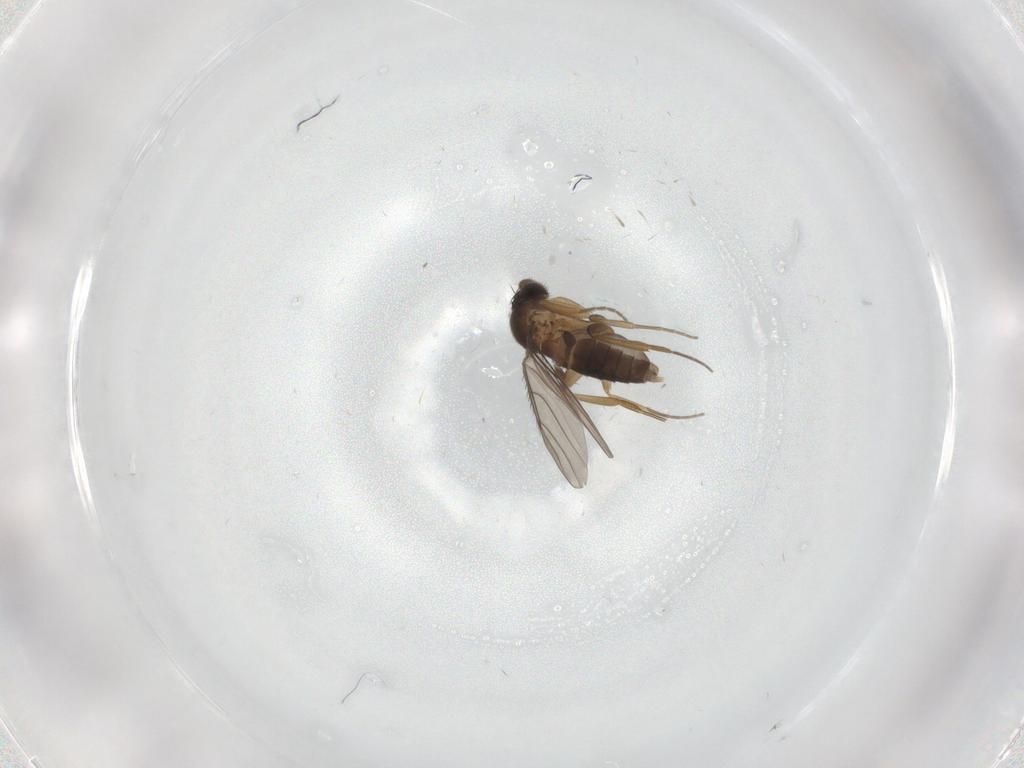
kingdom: Animalia
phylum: Arthropoda
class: Insecta
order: Diptera
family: Phoridae
